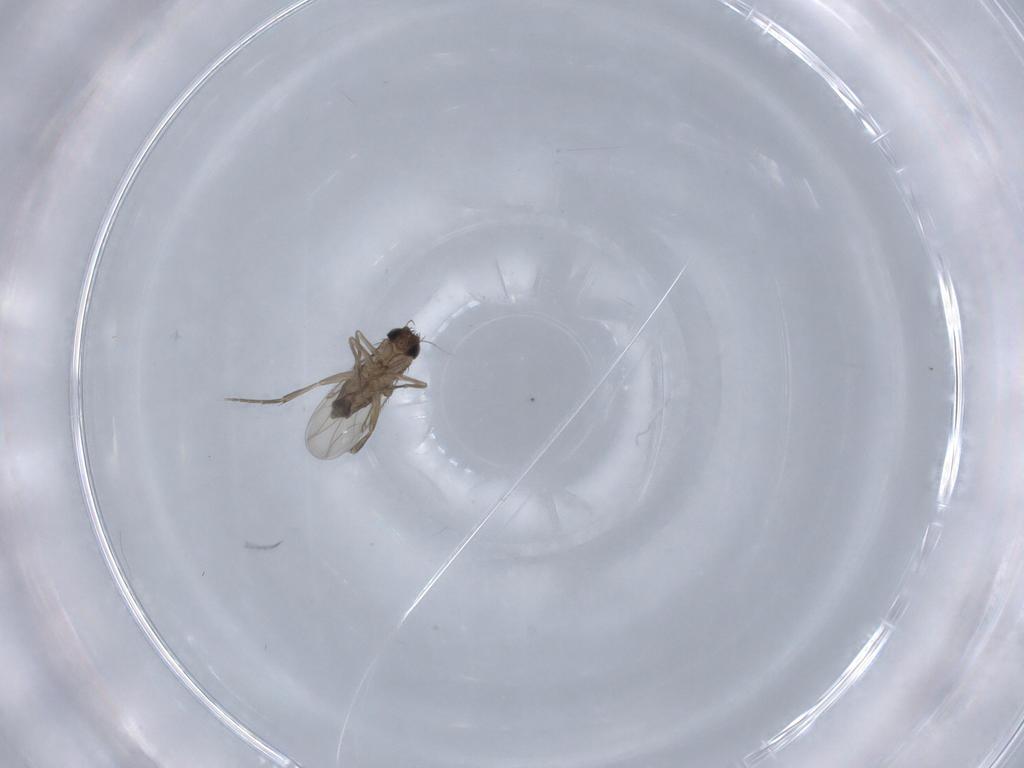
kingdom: Animalia
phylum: Arthropoda
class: Insecta
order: Diptera
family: Phoridae
